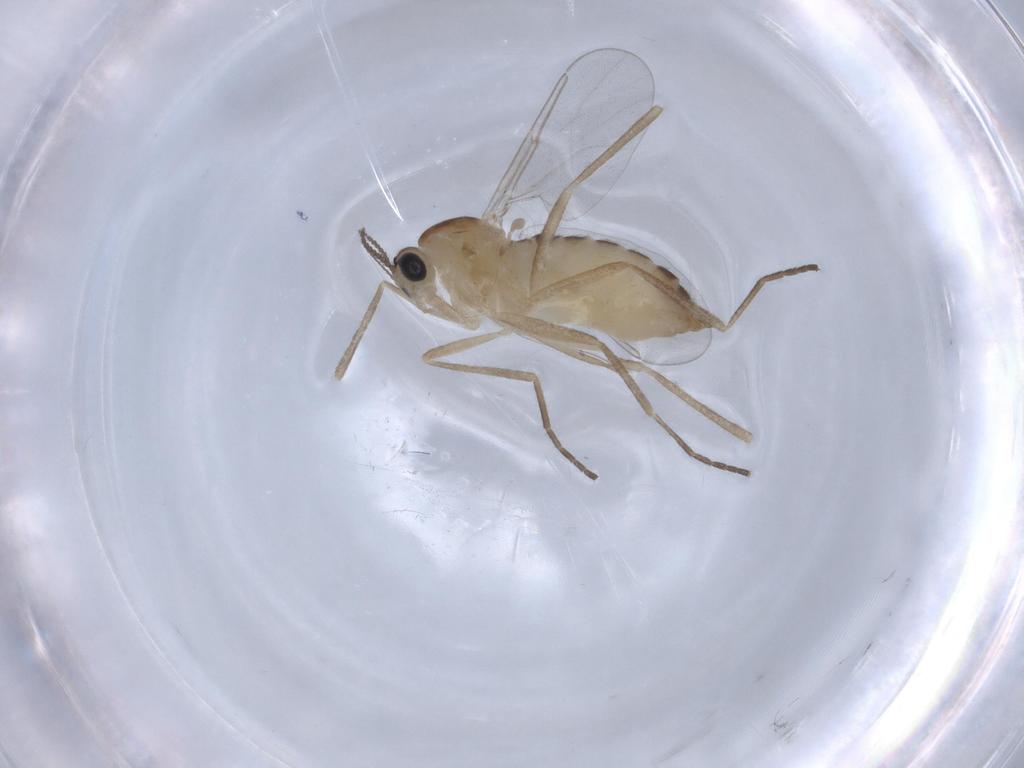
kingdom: Animalia
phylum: Arthropoda
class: Insecta
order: Diptera
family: Cecidomyiidae
